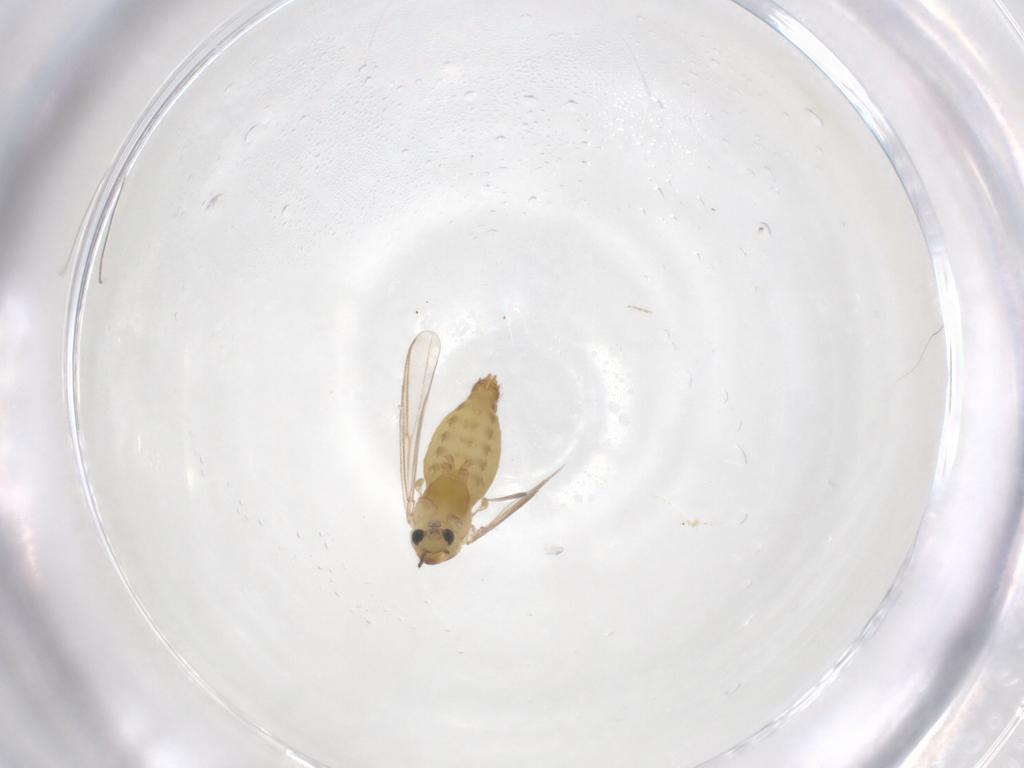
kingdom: Animalia
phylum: Arthropoda
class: Insecta
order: Diptera
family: Chironomidae
